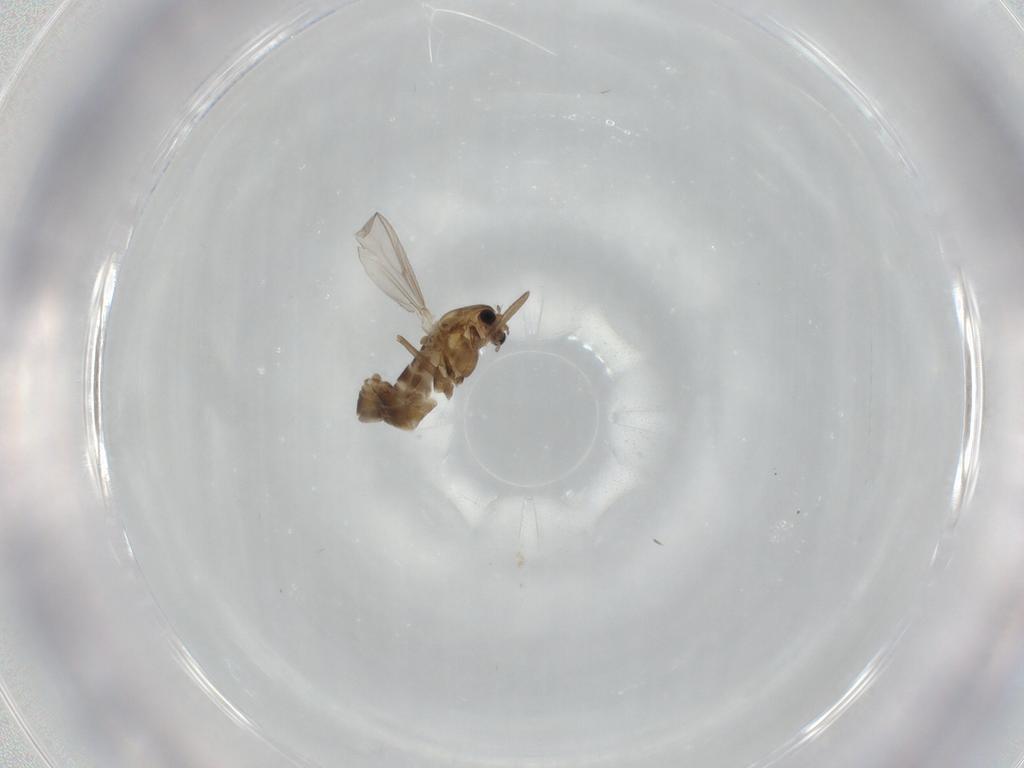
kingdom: Animalia
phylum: Arthropoda
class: Insecta
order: Diptera
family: Chironomidae
